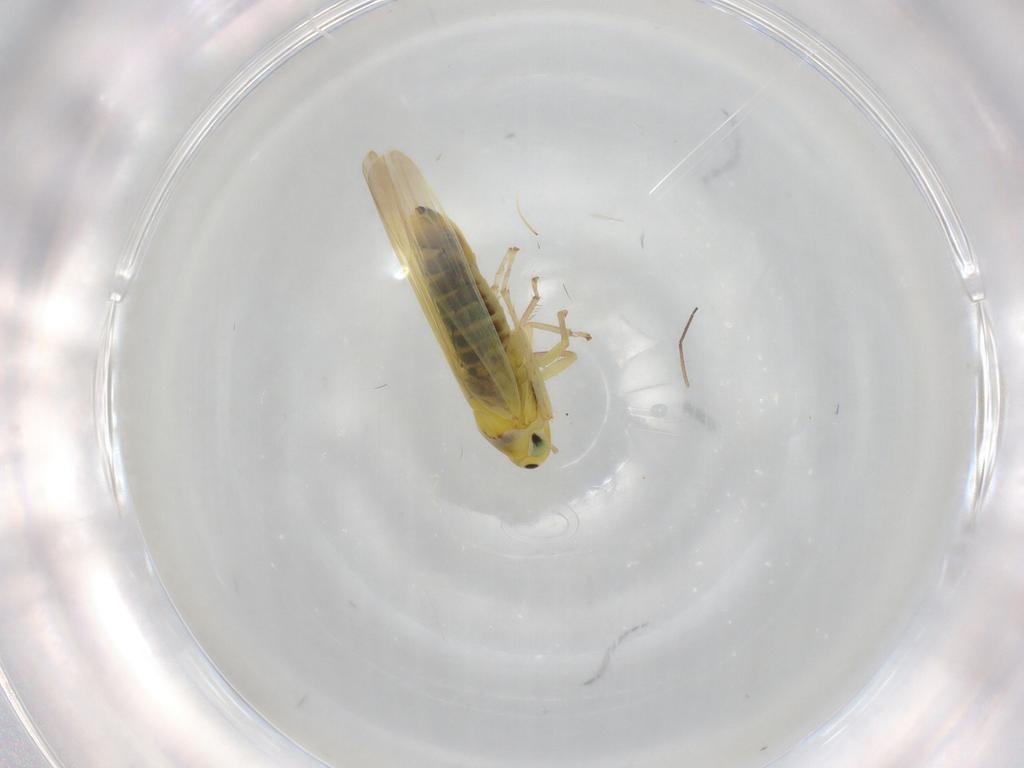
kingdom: Animalia
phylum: Arthropoda
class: Insecta
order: Hemiptera
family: Cicadellidae
